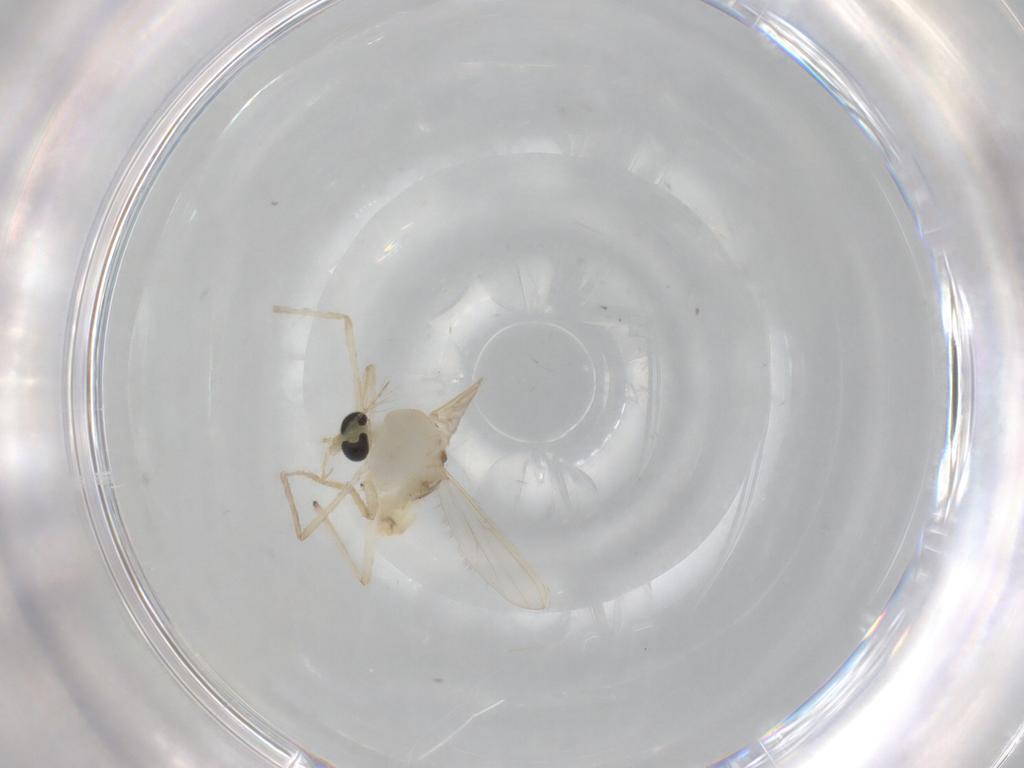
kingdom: Animalia
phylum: Arthropoda
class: Insecta
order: Diptera
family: Chironomidae
